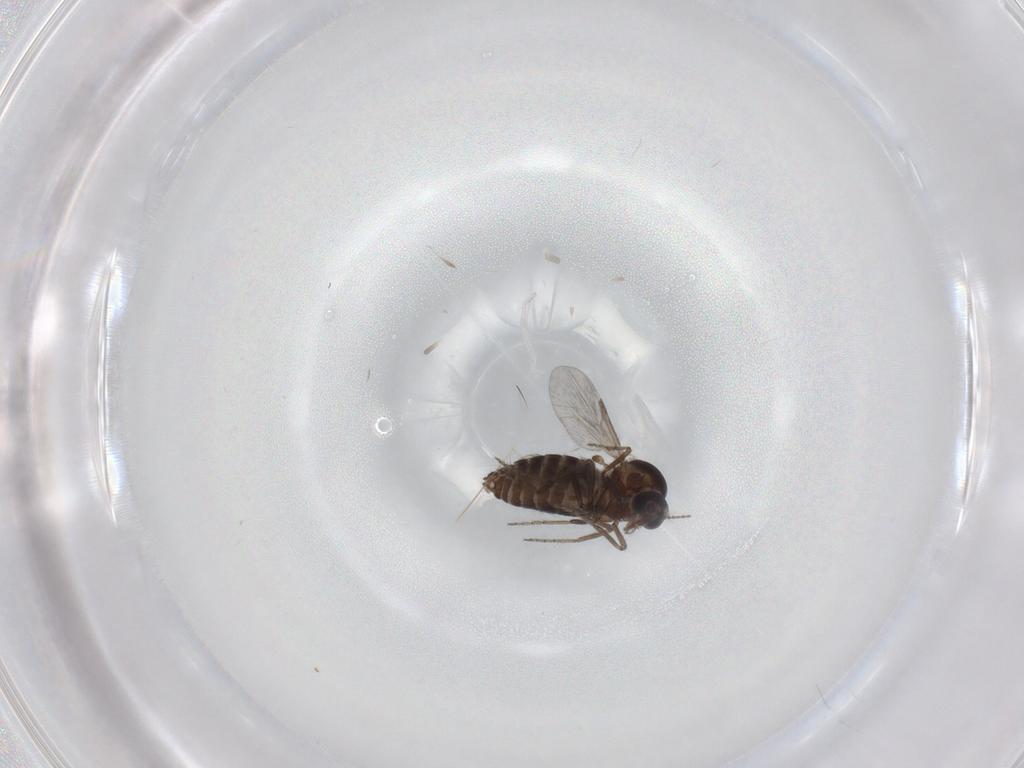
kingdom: Animalia
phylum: Arthropoda
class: Insecta
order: Diptera
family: Ceratopogonidae
